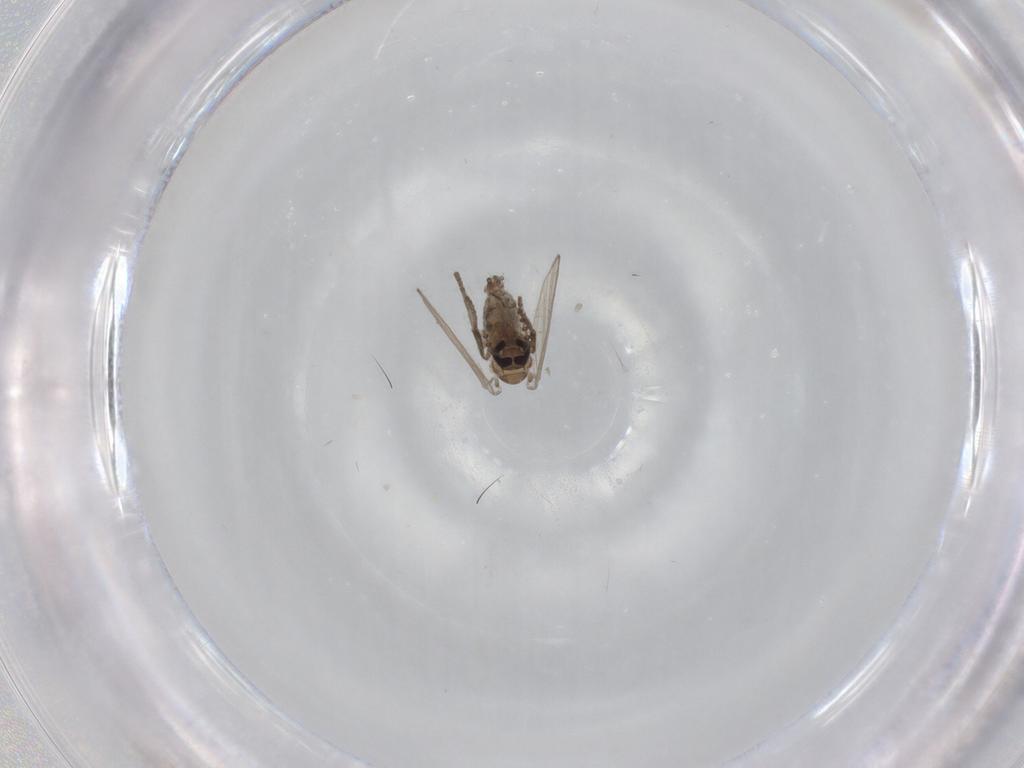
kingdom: Animalia
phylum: Arthropoda
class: Insecta
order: Diptera
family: Psychodidae
